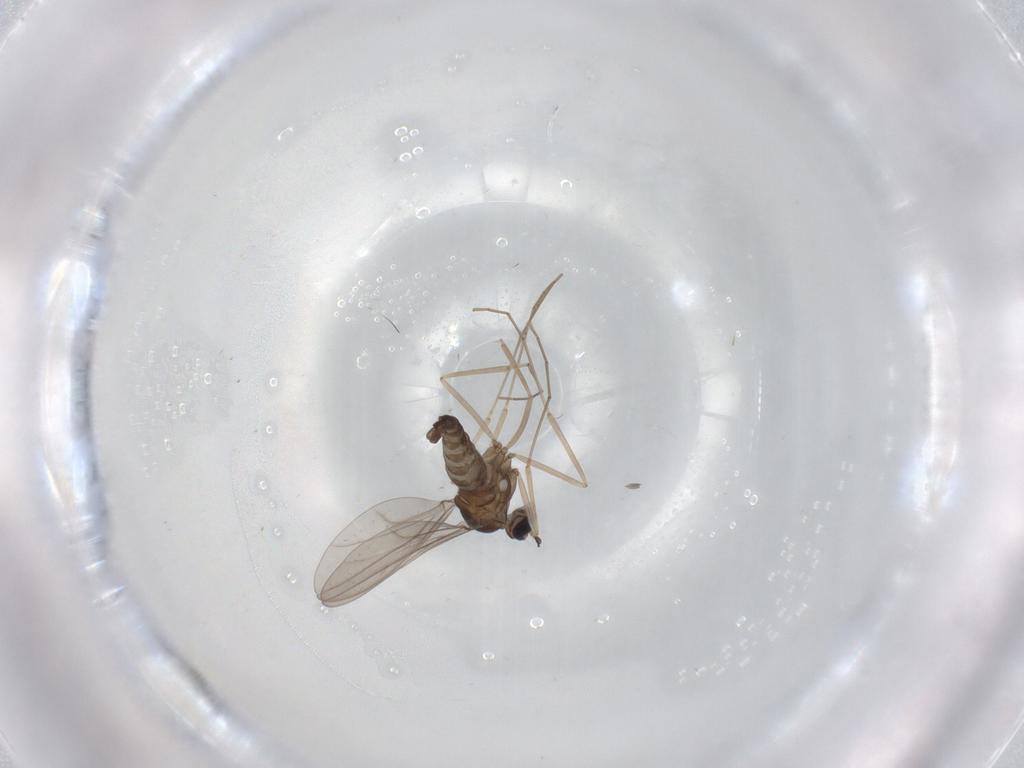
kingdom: Animalia
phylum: Arthropoda
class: Insecta
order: Diptera
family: Cecidomyiidae
